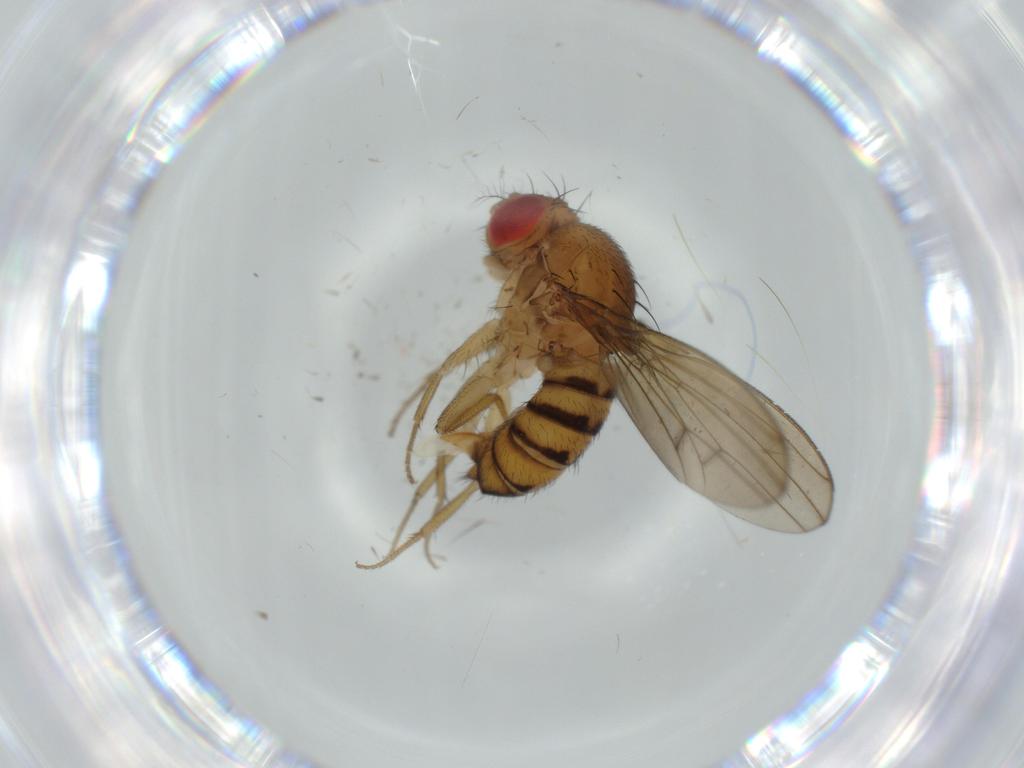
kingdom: Animalia
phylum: Arthropoda
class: Insecta
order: Diptera
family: Drosophilidae
